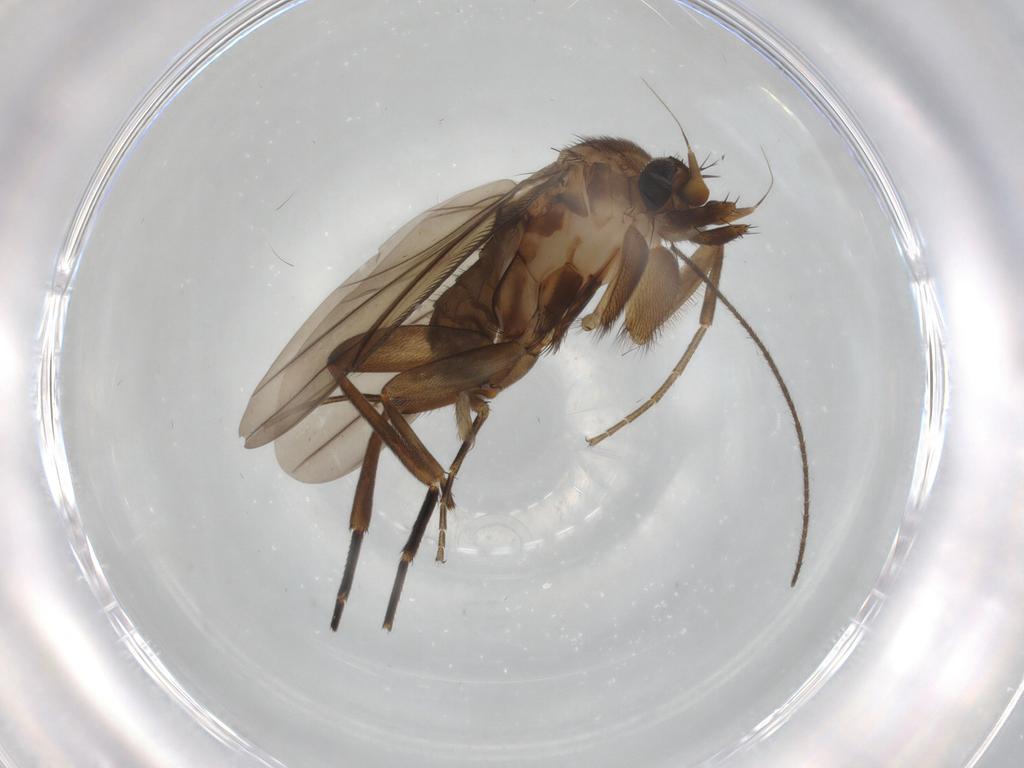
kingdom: Animalia
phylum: Arthropoda
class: Insecta
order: Diptera
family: Phoridae
